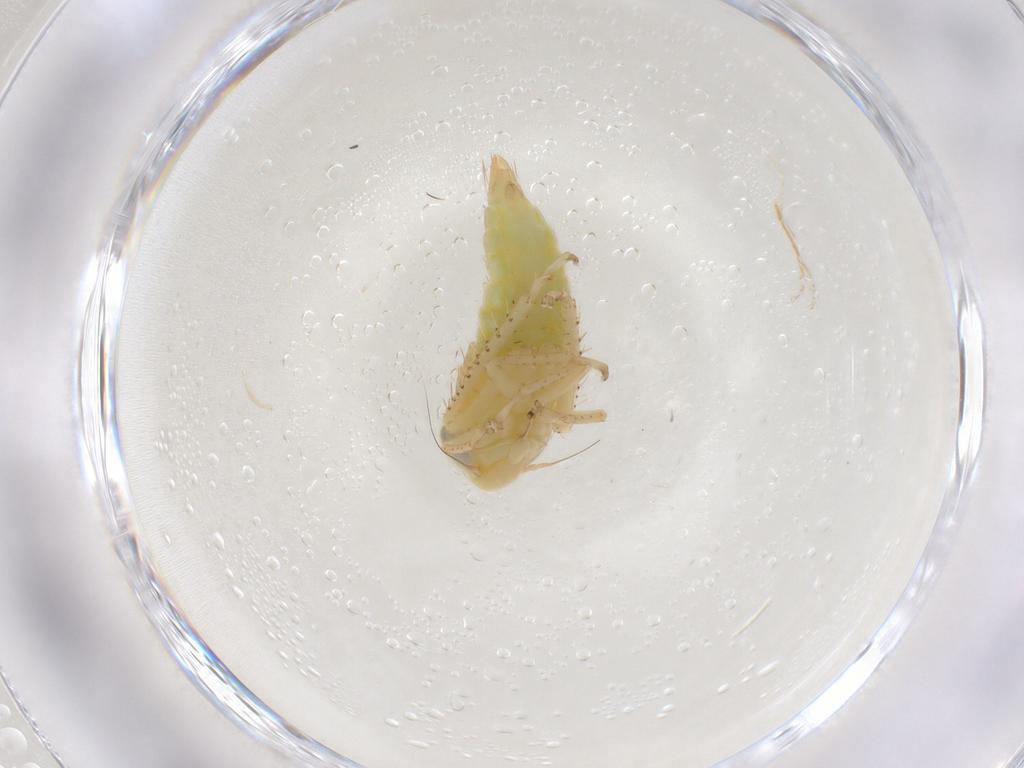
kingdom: Animalia
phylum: Arthropoda
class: Insecta
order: Hemiptera
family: Cicadellidae
